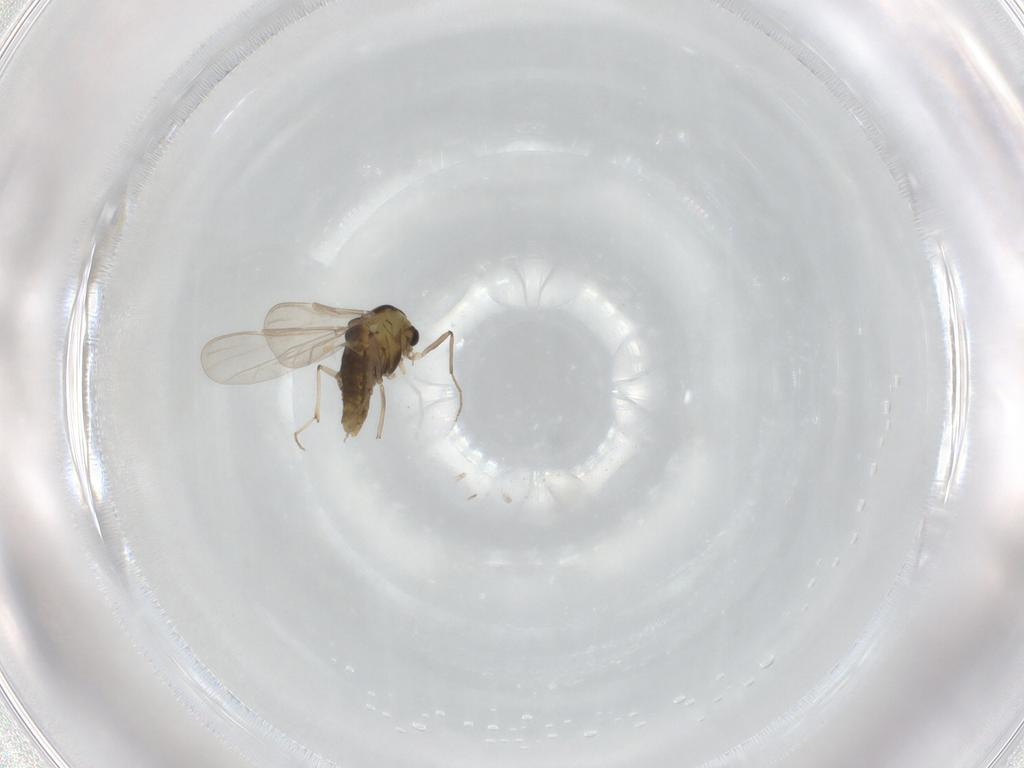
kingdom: Animalia
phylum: Arthropoda
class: Insecta
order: Diptera
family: Chironomidae
